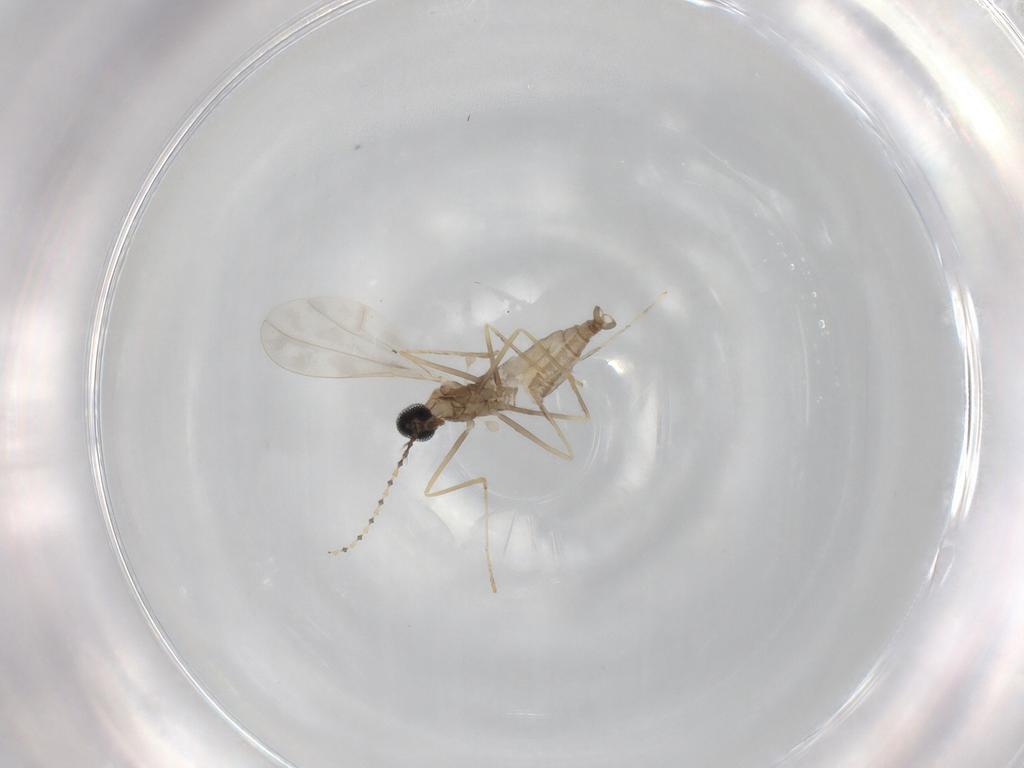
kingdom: Animalia
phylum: Arthropoda
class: Insecta
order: Diptera
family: Cecidomyiidae
